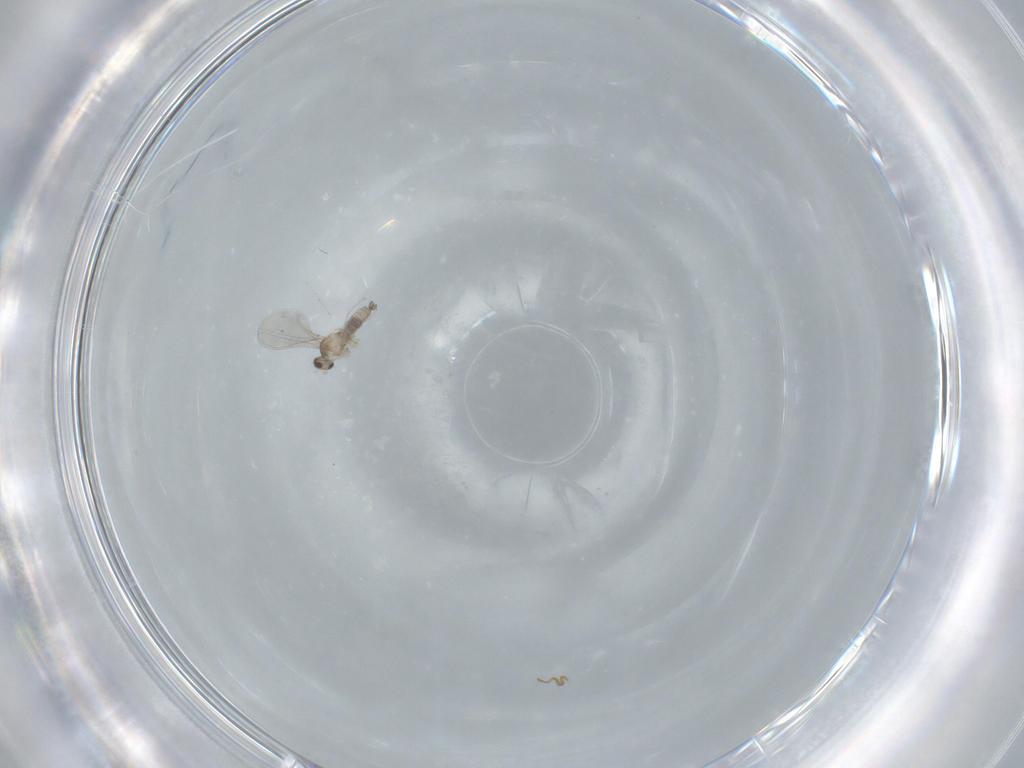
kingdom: Animalia
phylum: Arthropoda
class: Insecta
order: Diptera
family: Cecidomyiidae
